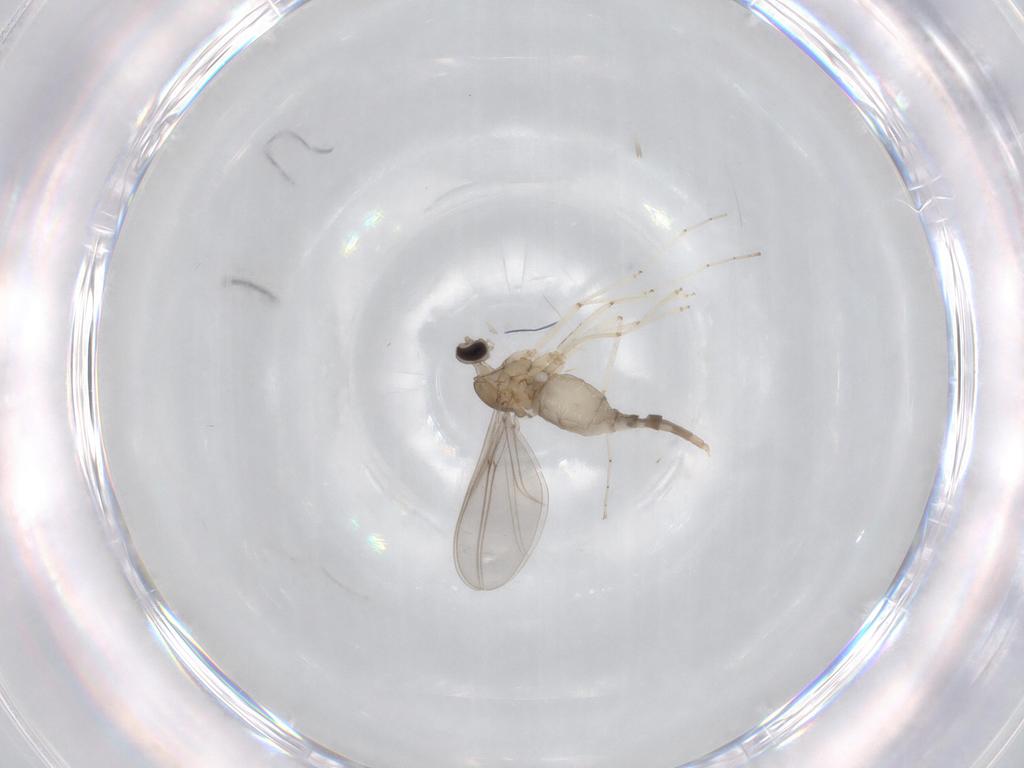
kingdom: Animalia
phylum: Arthropoda
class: Insecta
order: Diptera
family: Cecidomyiidae
